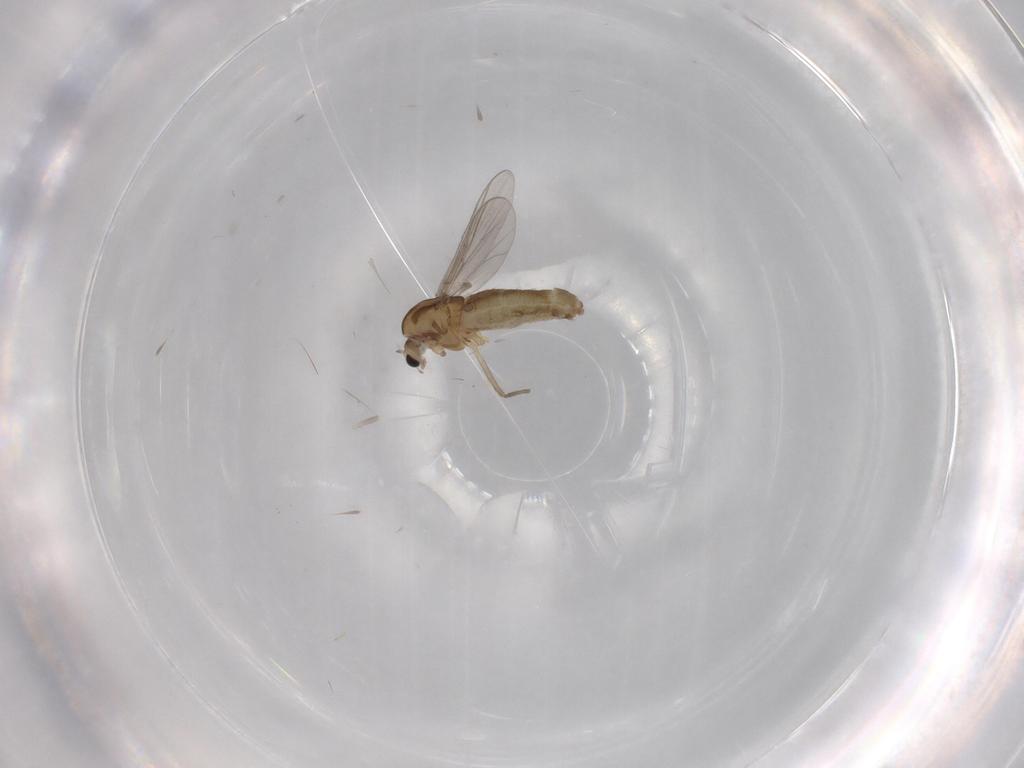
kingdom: Animalia
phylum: Arthropoda
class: Insecta
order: Diptera
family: Chironomidae
